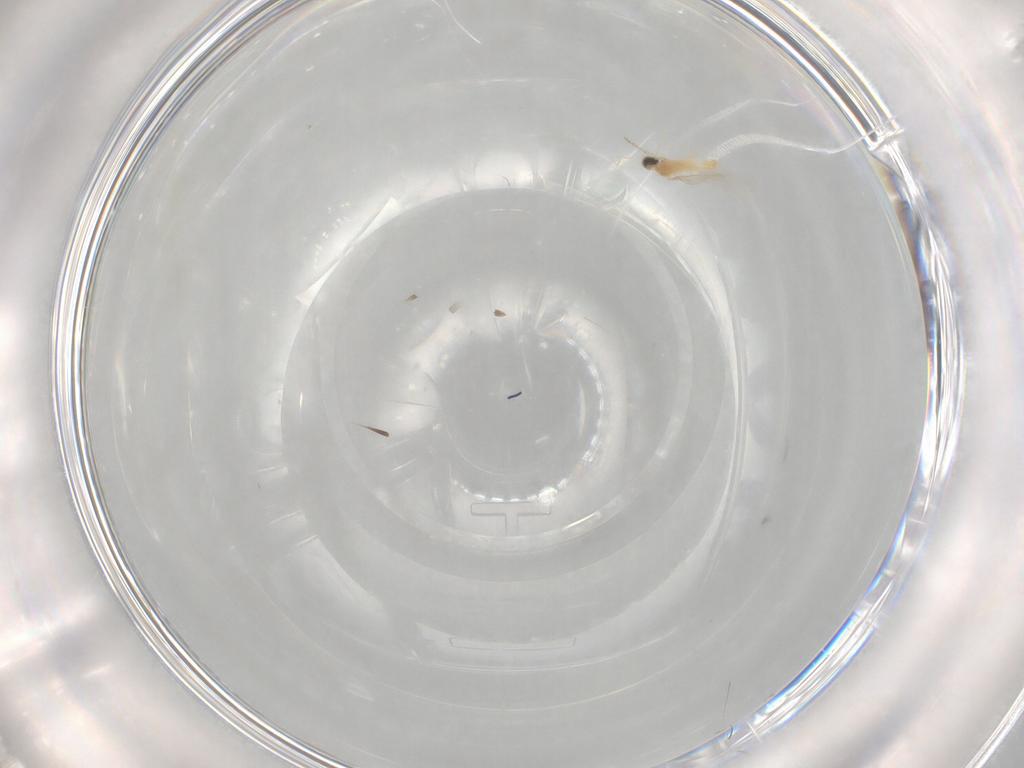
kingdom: Animalia
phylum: Arthropoda
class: Insecta
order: Diptera
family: Cecidomyiidae
